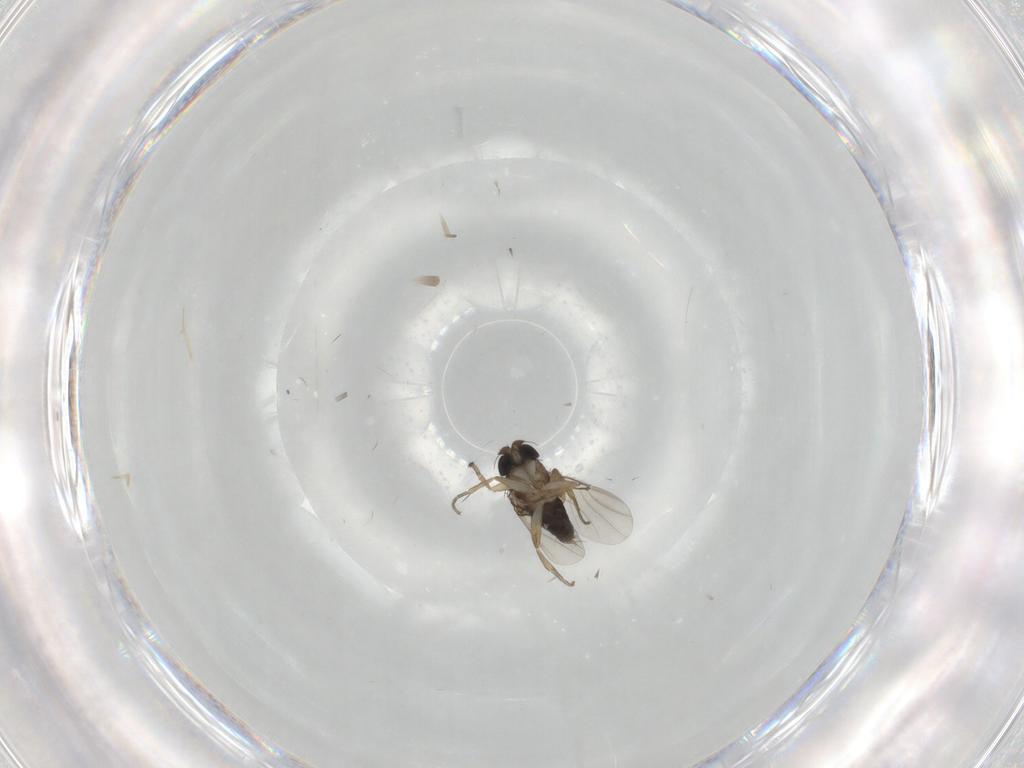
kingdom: Animalia
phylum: Arthropoda
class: Insecta
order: Diptera
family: Phoridae
